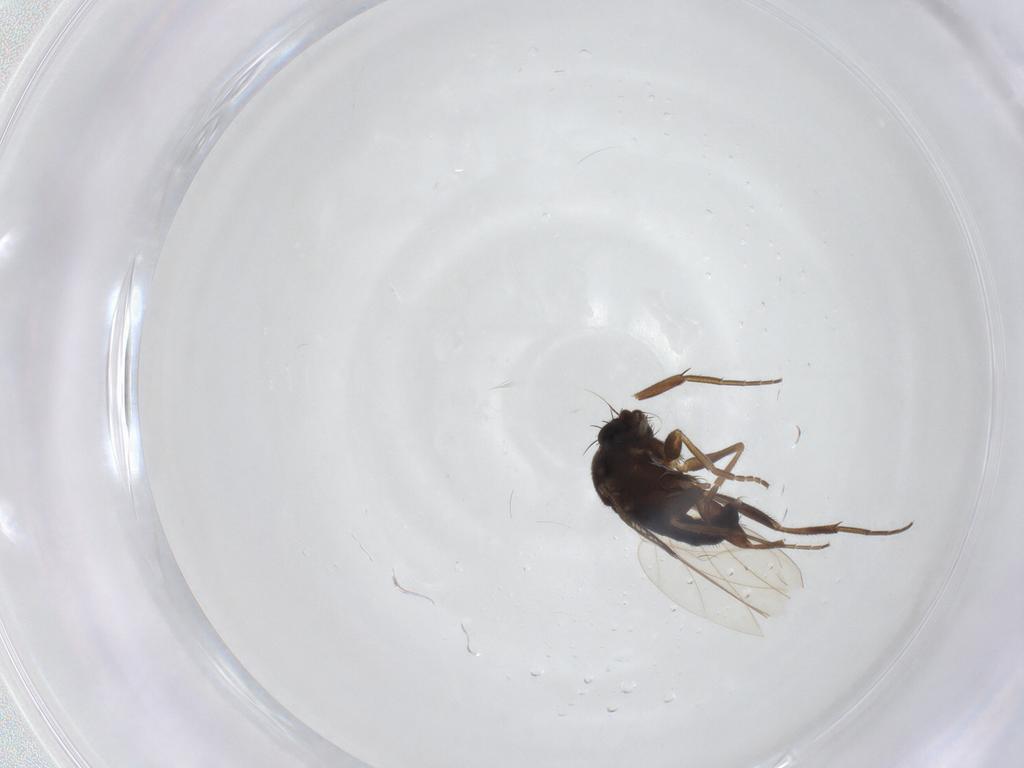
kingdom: Animalia
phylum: Arthropoda
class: Insecta
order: Diptera
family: Phoridae
